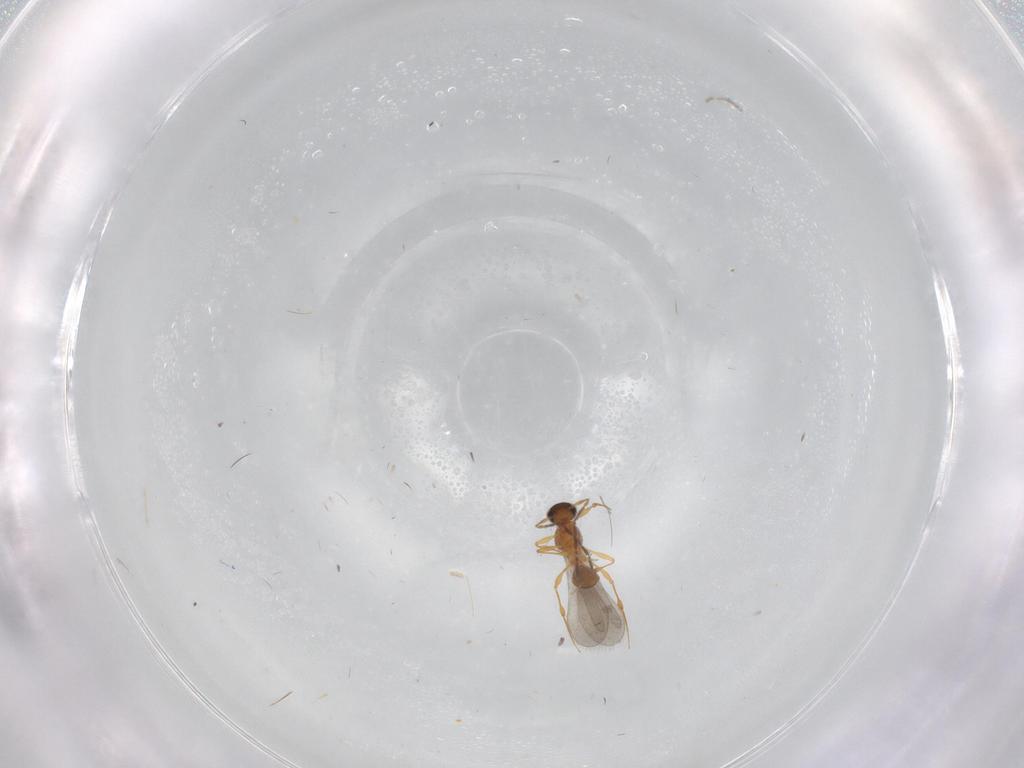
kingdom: Animalia
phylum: Arthropoda
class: Insecta
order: Hymenoptera
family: Platygastridae
